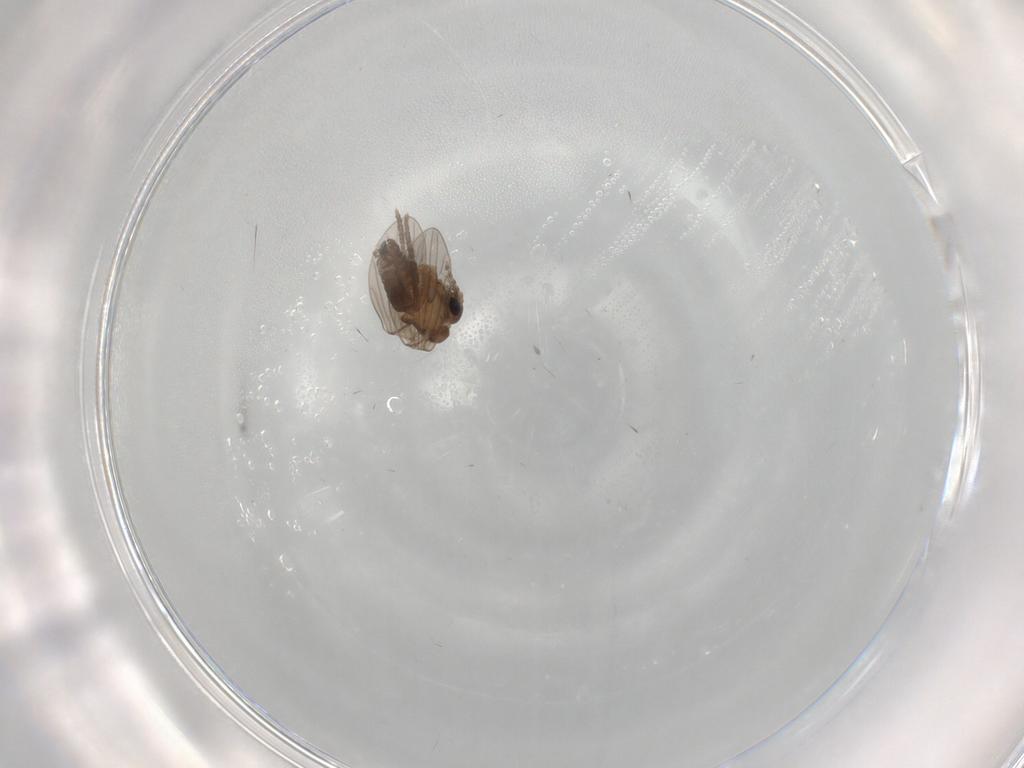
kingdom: Animalia
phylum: Arthropoda
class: Insecta
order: Diptera
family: Psychodidae
